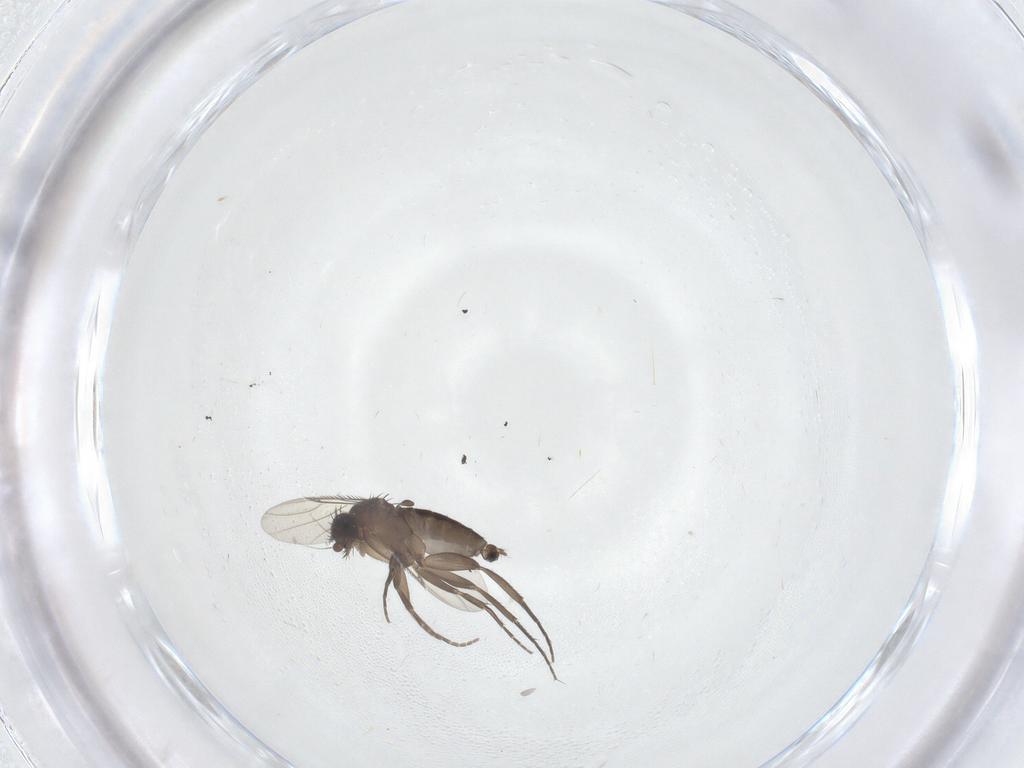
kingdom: Animalia
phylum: Arthropoda
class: Insecta
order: Diptera
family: Phoridae
